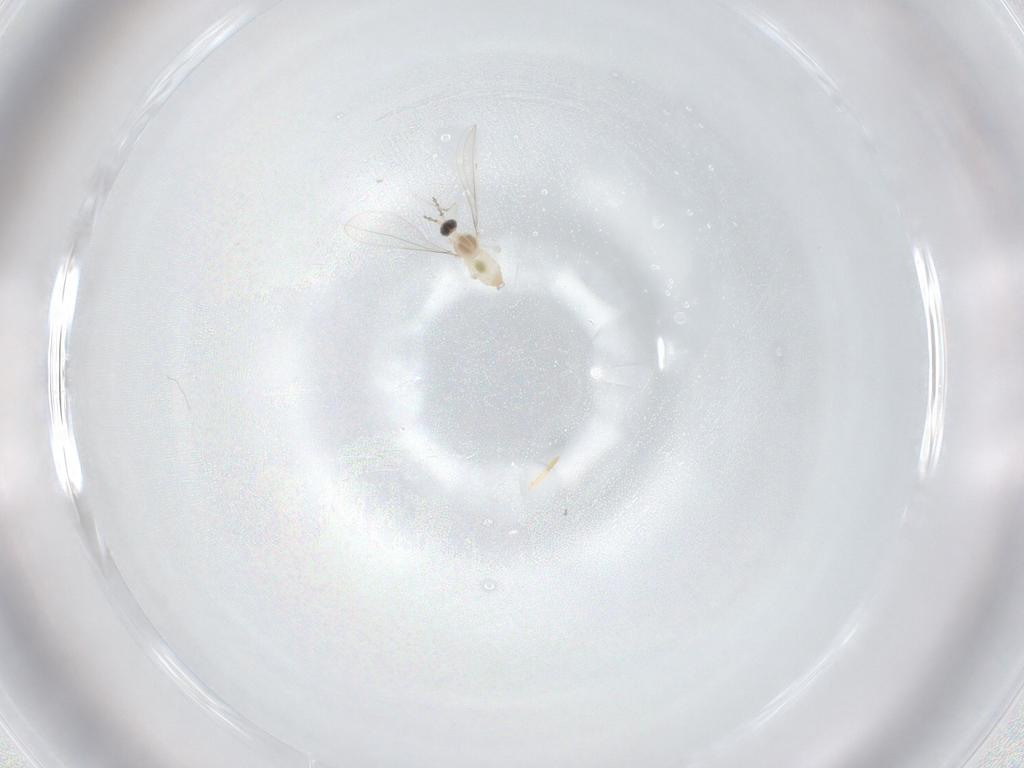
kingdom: Animalia
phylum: Arthropoda
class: Insecta
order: Diptera
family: Cecidomyiidae
